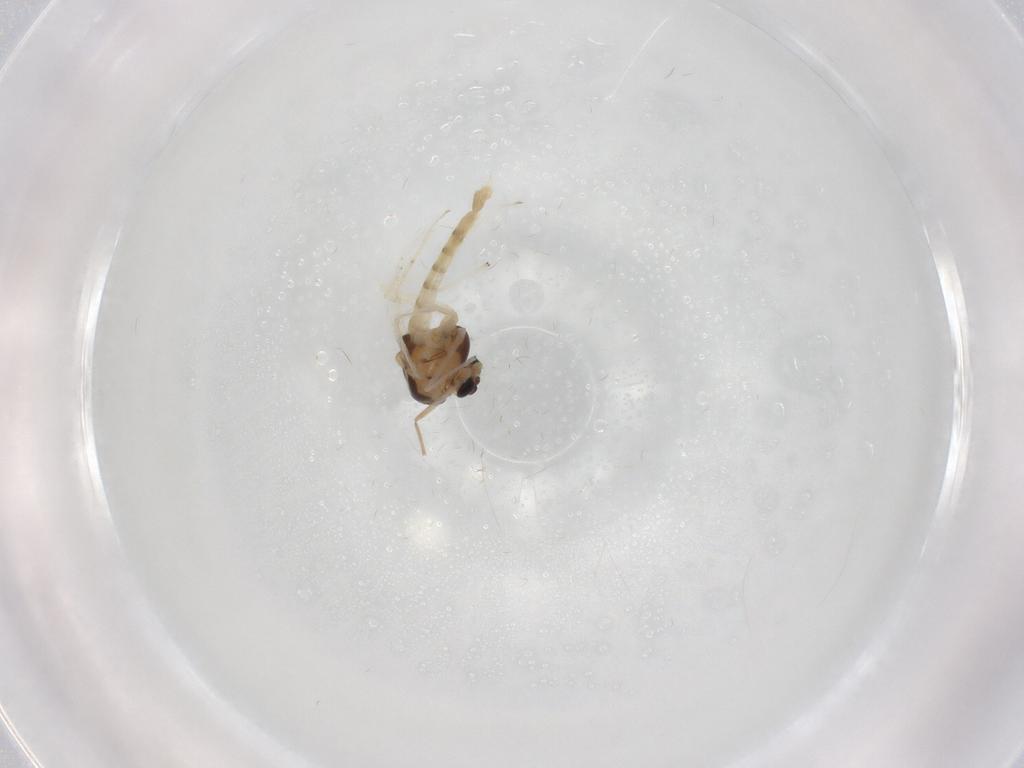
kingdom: Animalia
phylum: Arthropoda
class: Insecta
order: Diptera
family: Chironomidae
